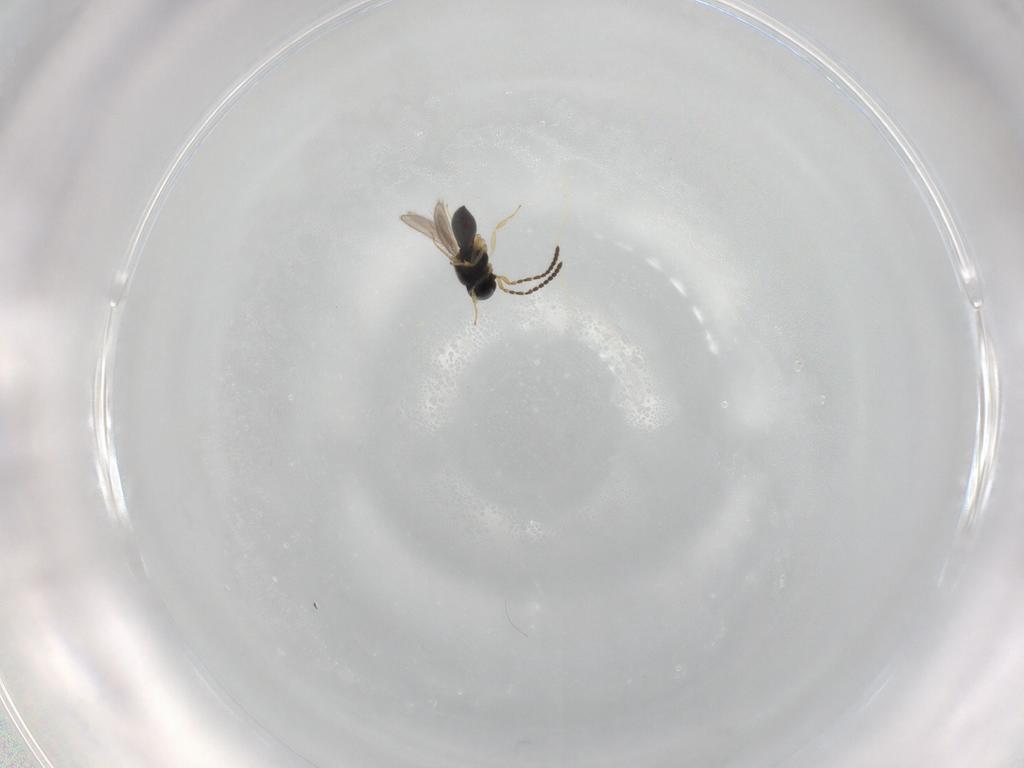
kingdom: Animalia
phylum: Arthropoda
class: Insecta
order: Hymenoptera
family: Scelionidae
